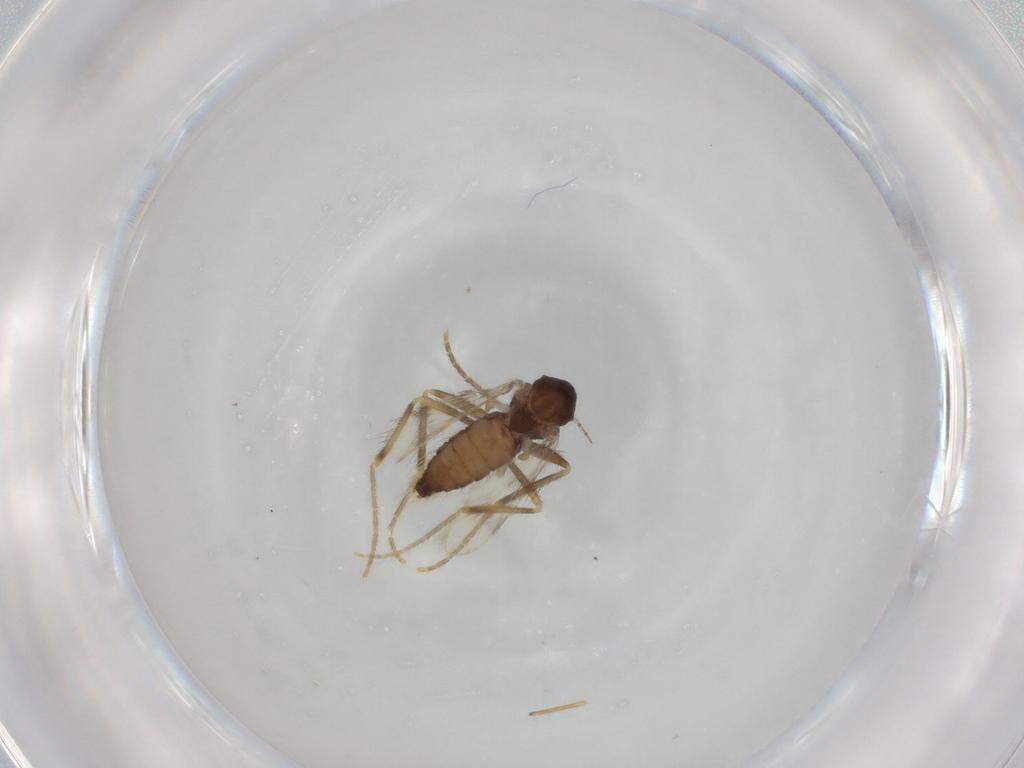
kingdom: Animalia
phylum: Arthropoda
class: Insecta
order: Diptera
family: Corethrellidae
